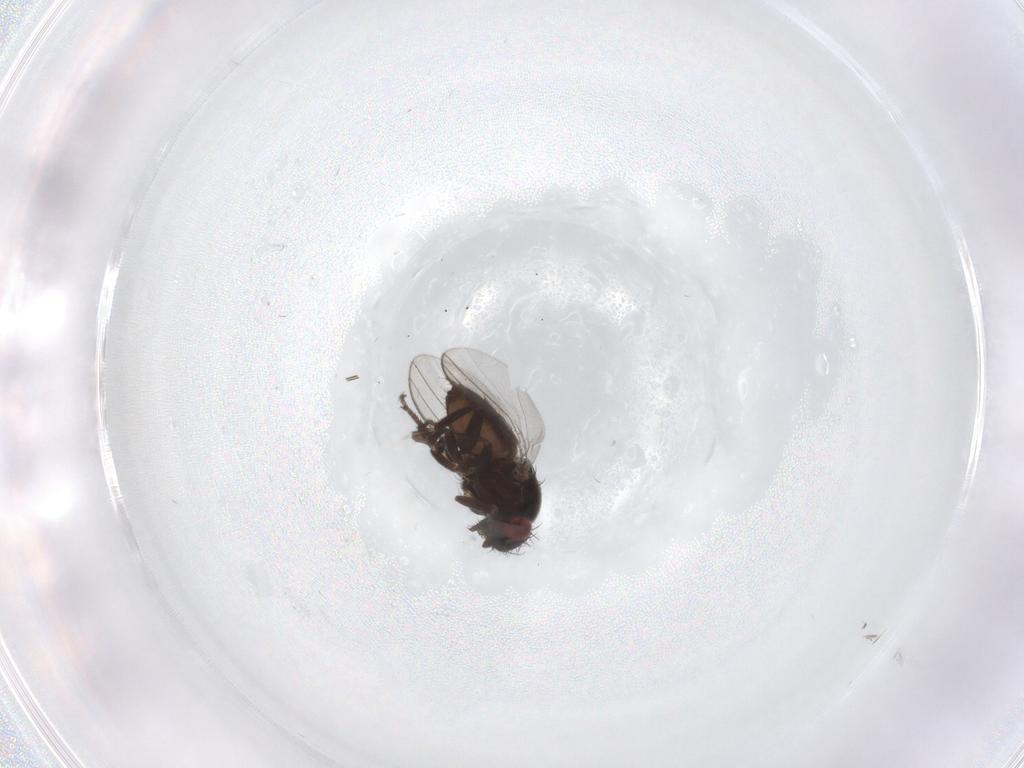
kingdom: Animalia
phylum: Arthropoda
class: Insecta
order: Diptera
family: Milichiidae
